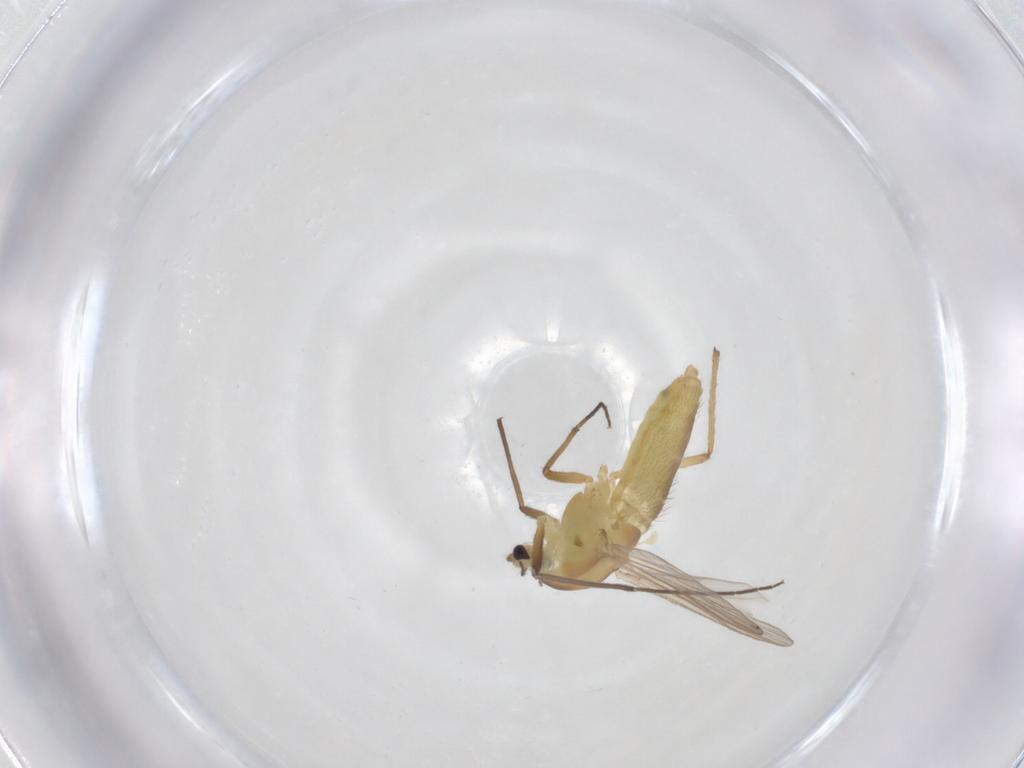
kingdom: Animalia
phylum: Arthropoda
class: Insecta
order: Diptera
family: Chironomidae
